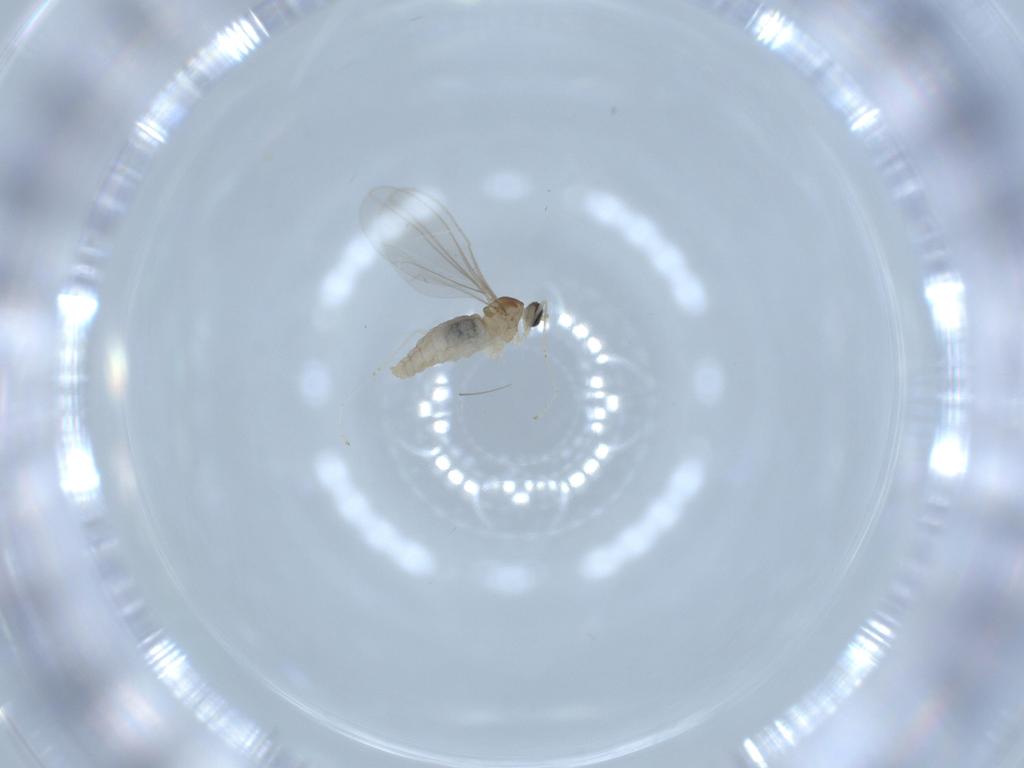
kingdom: Animalia
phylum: Arthropoda
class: Insecta
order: Diptera
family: Cecidomyiidae
